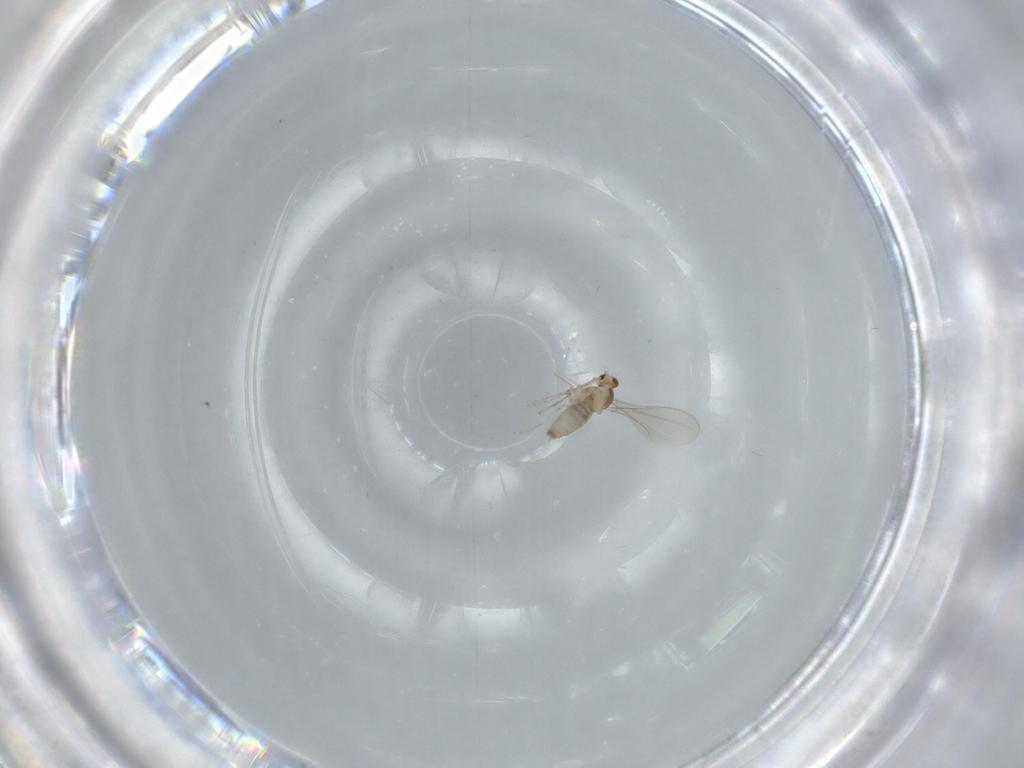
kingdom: Animalia
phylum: Arthropoda
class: Insecta
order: Diptera
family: Cecidomyiidae
